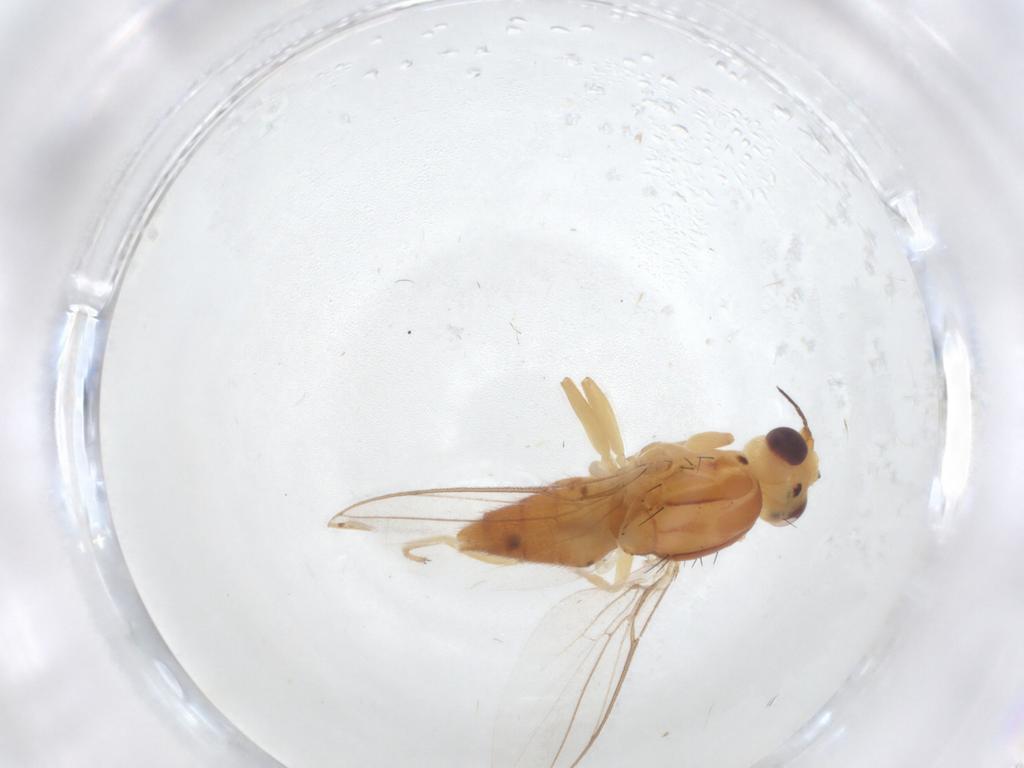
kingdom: Animalia
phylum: Arthropoda
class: Insecta
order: Diptera
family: Chloropidae
